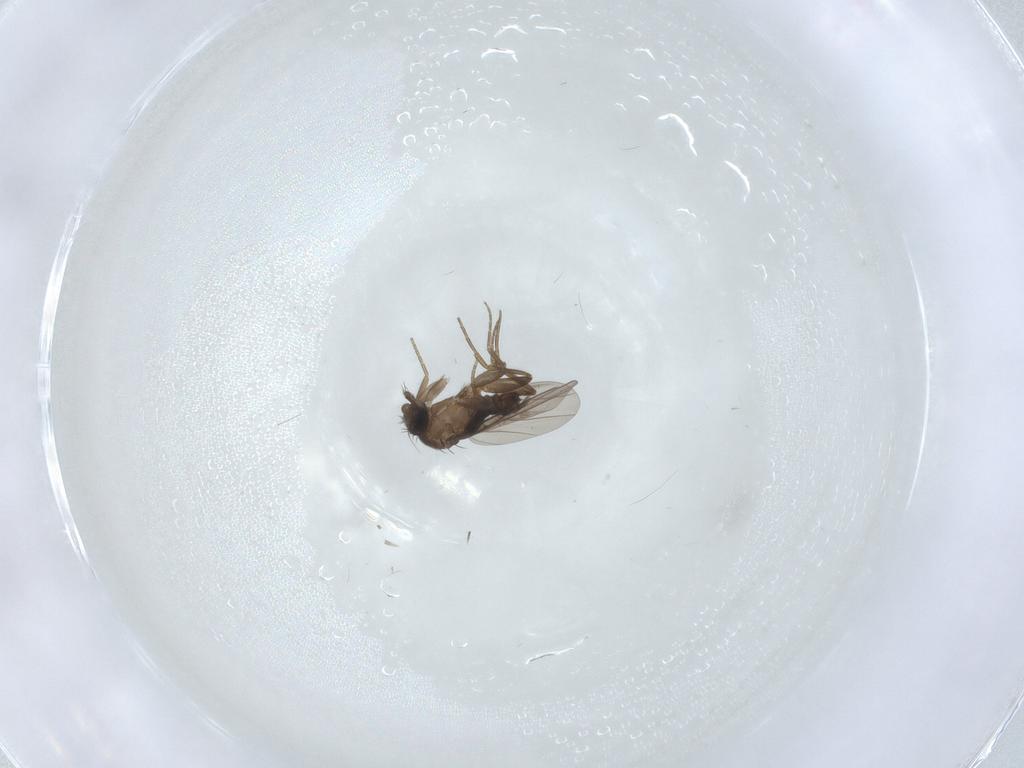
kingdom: Animalia
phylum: Arthropoda
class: Insecta
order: Diptera
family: Phoridae
